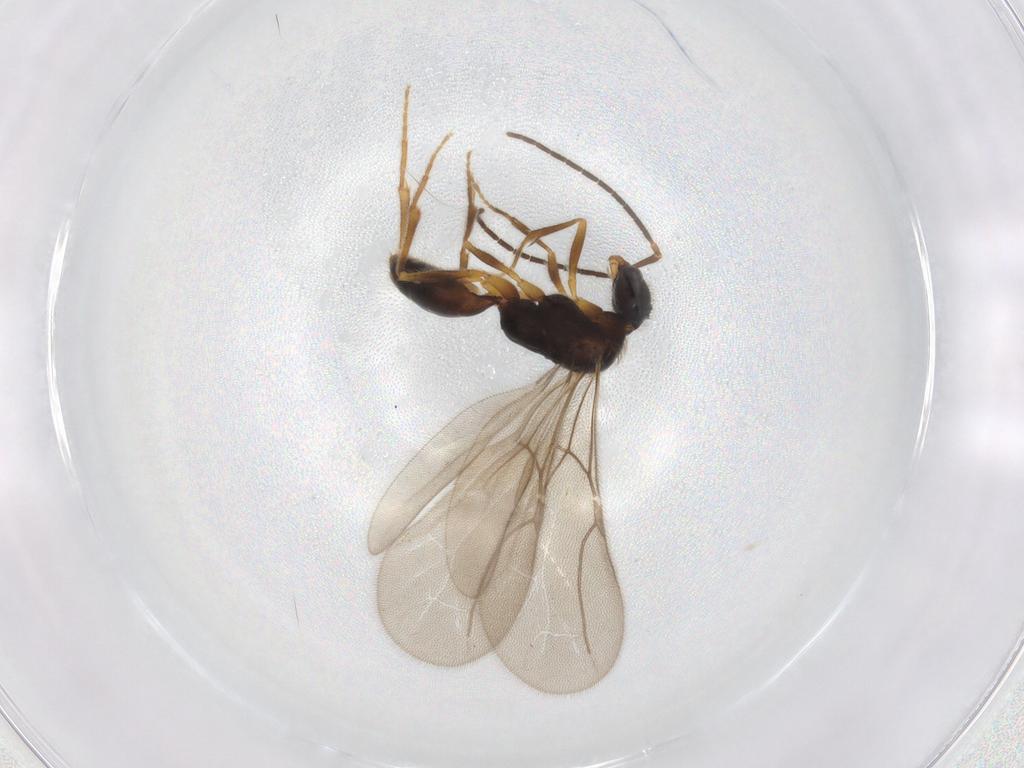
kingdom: Animalia
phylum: Arthropoda
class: Insecta
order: Hymenoptera
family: Bethylidae
